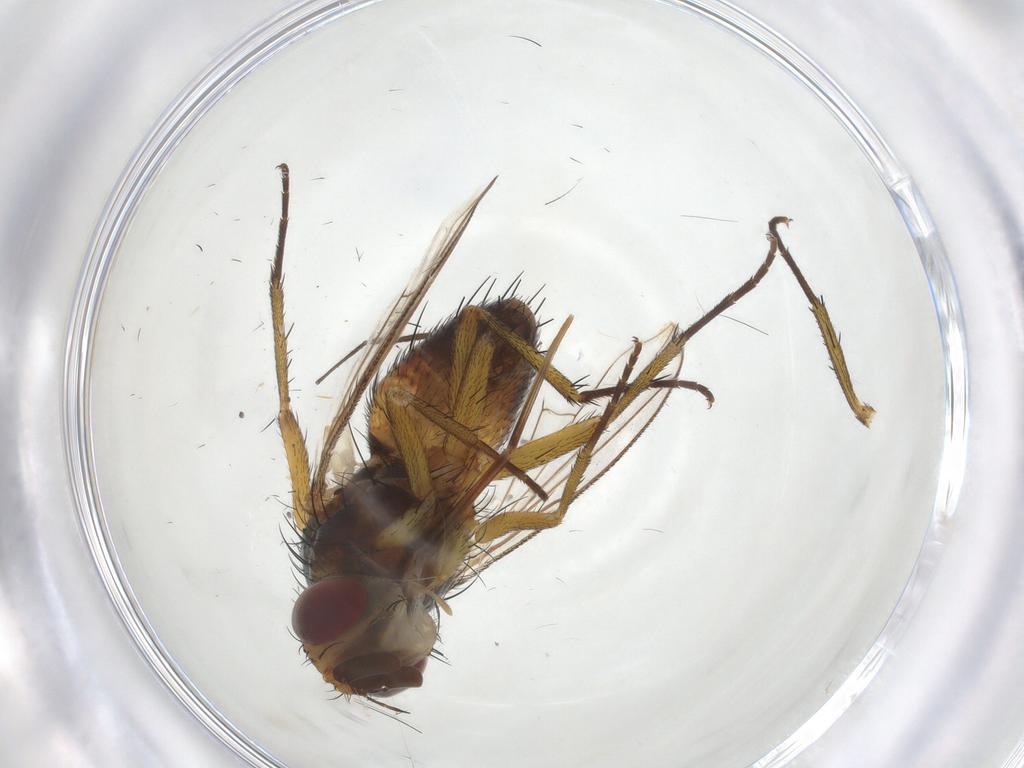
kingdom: Animalia
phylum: Arthropoda
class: Insecta
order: Diptera
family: Tachinidae
